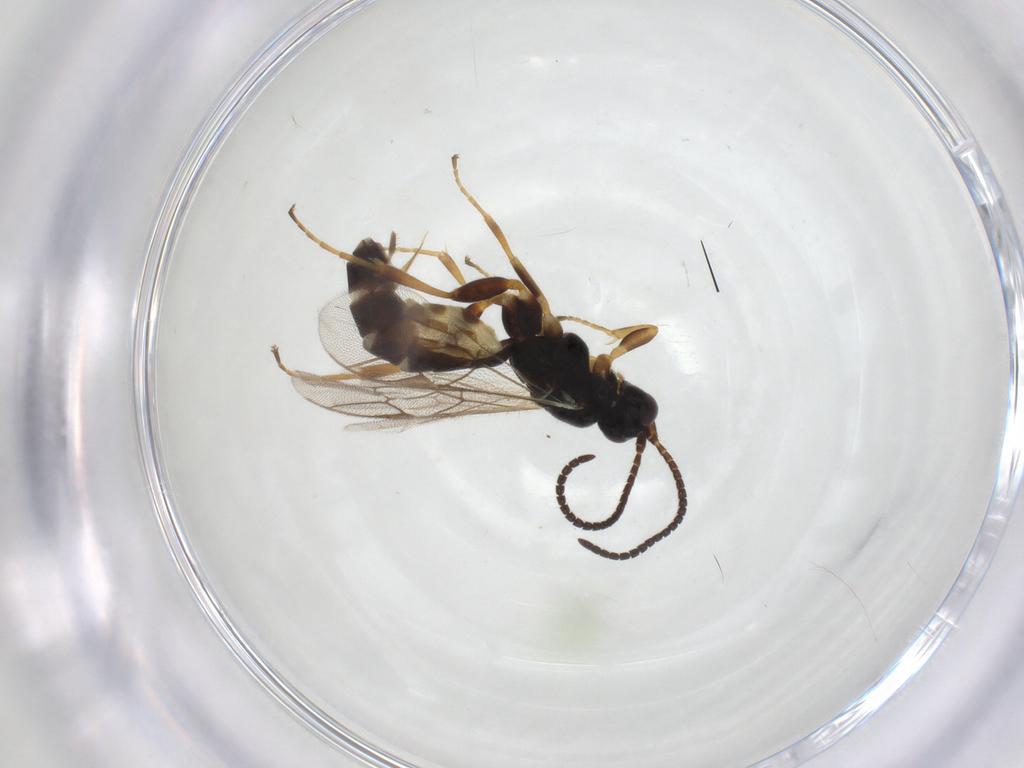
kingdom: Animalia
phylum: Arthropoda
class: Insecta
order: Hymenoptera
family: Ichneumonidae
